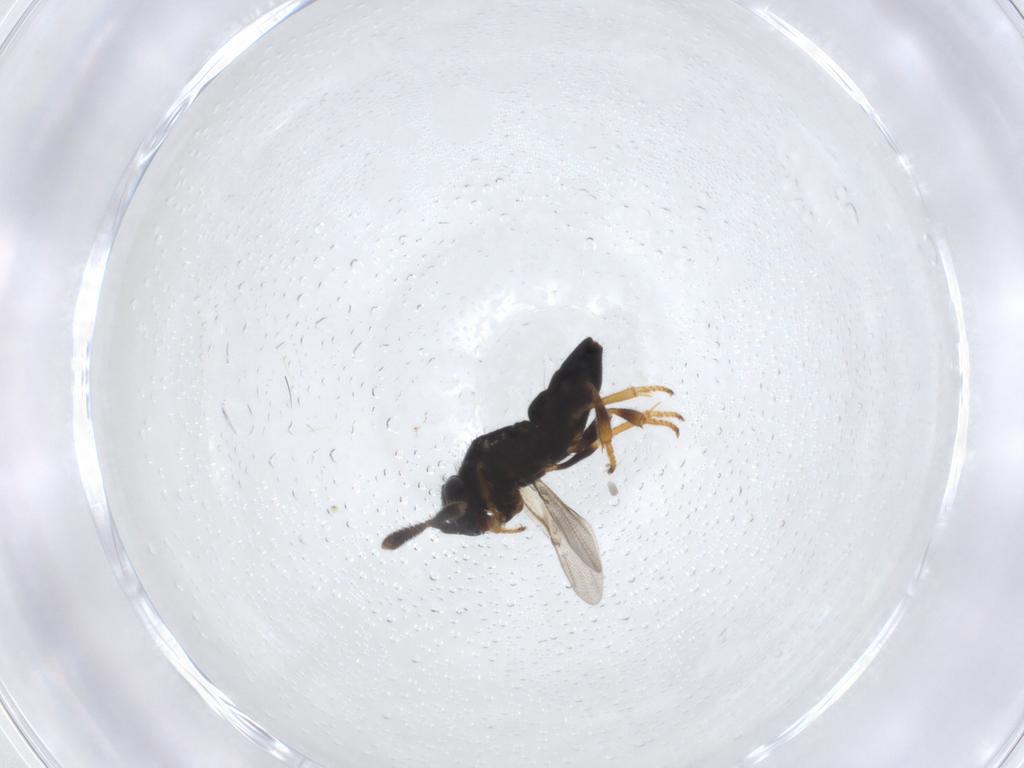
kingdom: Animalia
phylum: Arthropoda
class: Insecta
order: Hymenoptera
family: Encyrtidae
